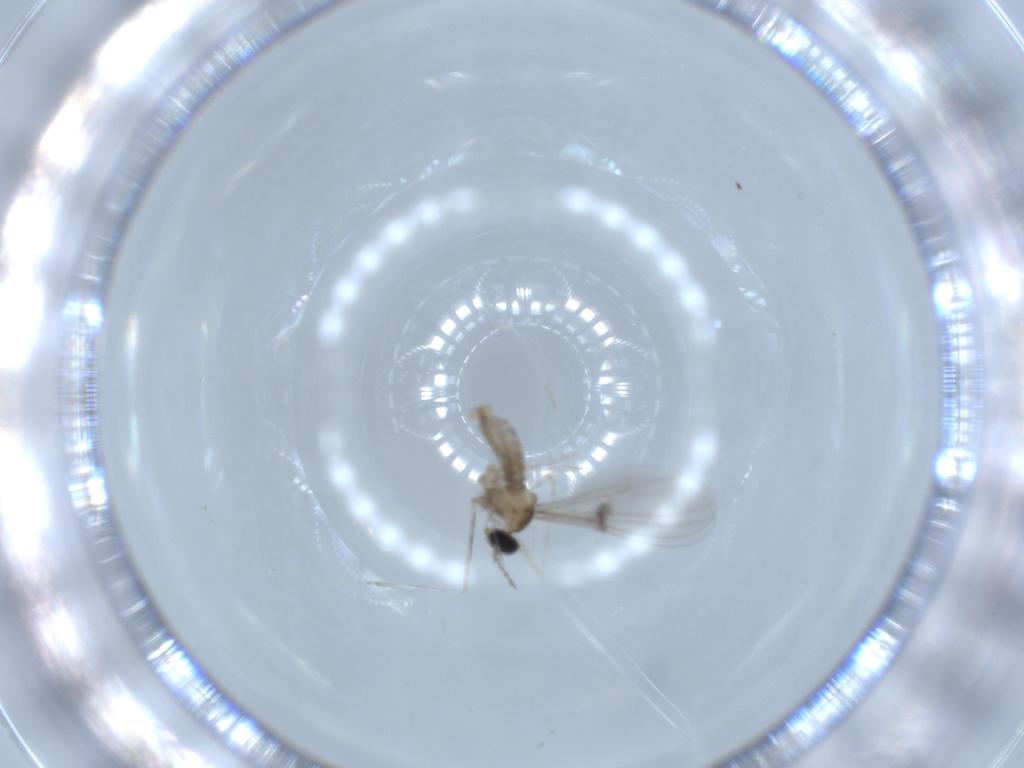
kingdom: Animalia
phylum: Arthropoda
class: Insecta
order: Diptera
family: Cecidomyiidae
